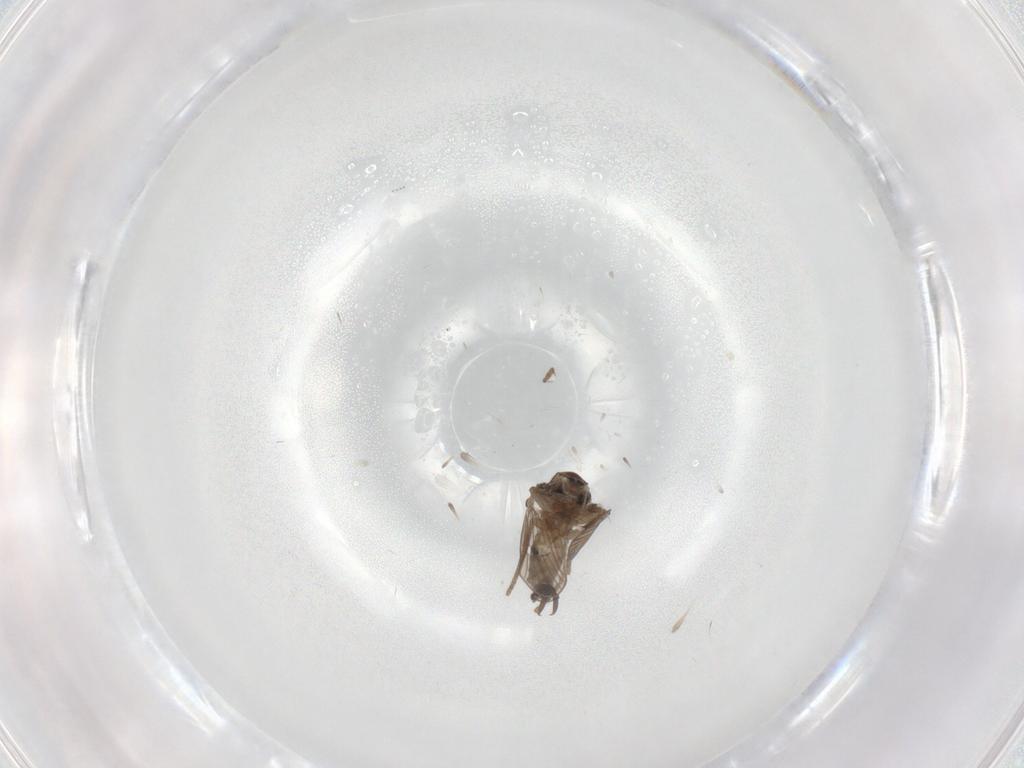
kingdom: Animalia
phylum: Arthropoda
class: Insecta
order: Diptera
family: Psychodidae
